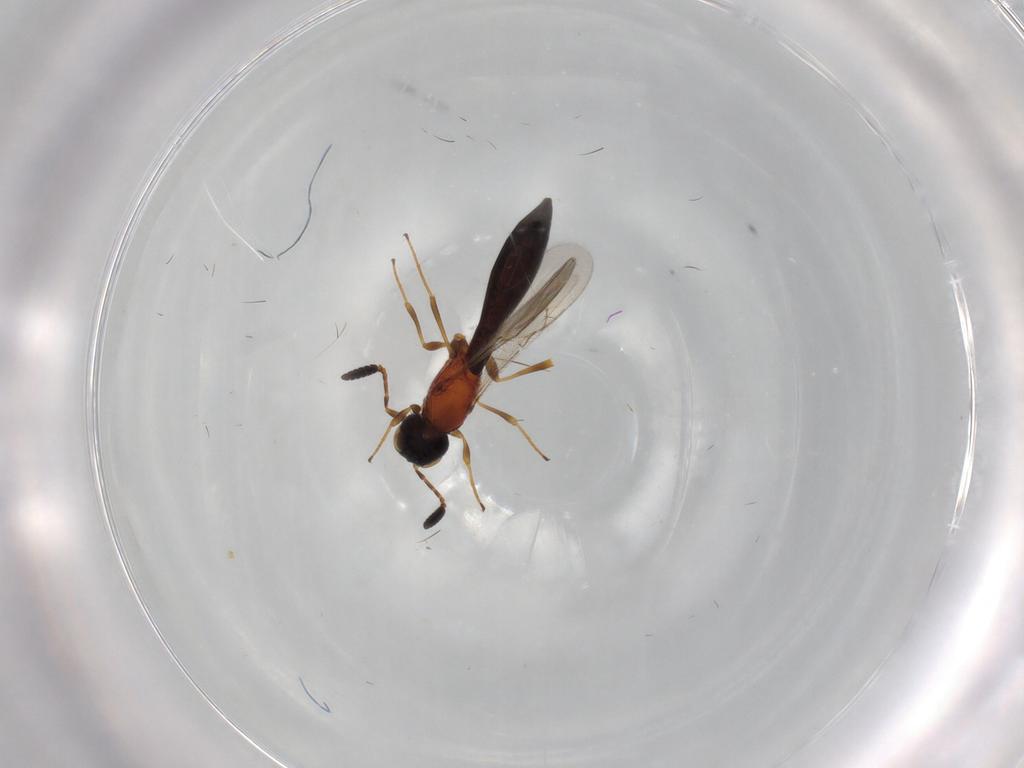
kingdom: Animalia
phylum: Arthropoda
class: Insecta
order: Hymenoptera
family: Scelionidae
